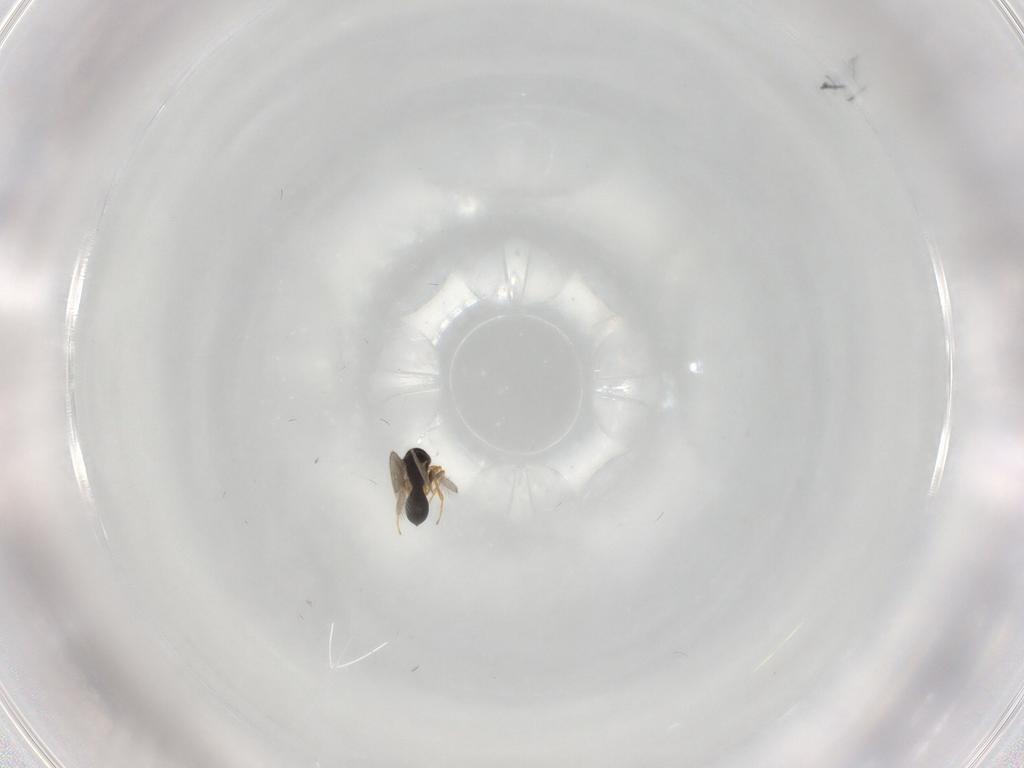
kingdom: Animalia
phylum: Arthropoda
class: Insecta
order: Hymenoptera
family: Platygastridae
